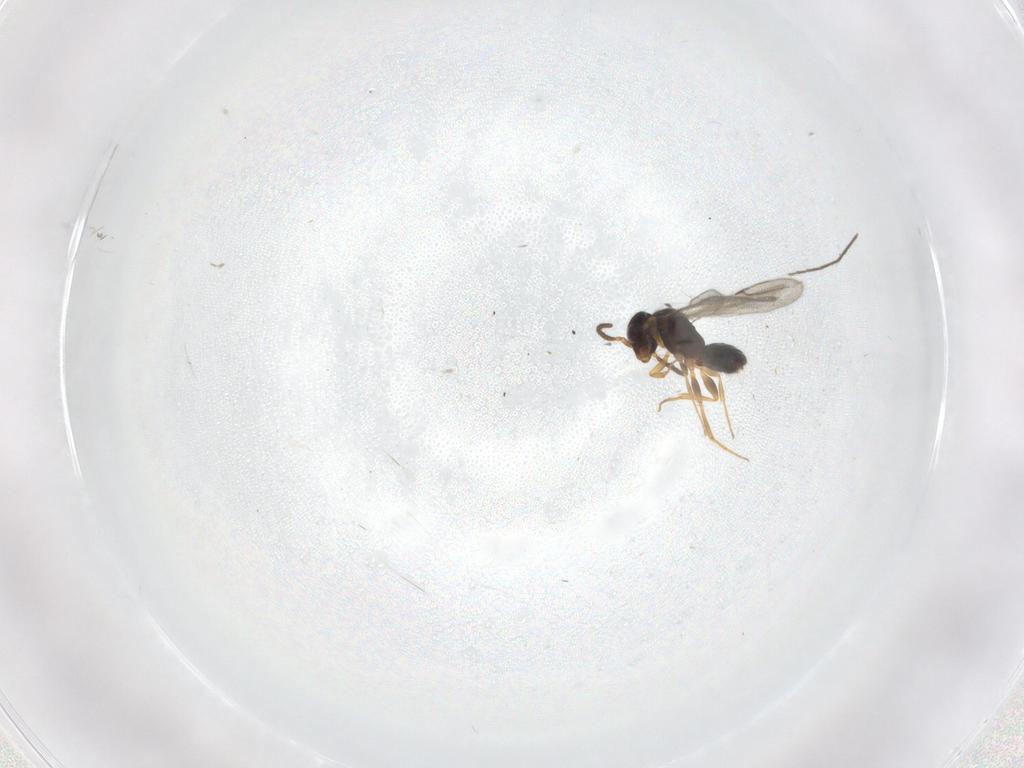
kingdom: Animalia
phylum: Arthropoda
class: Insecta
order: Hymenoptera
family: Bethylidae
